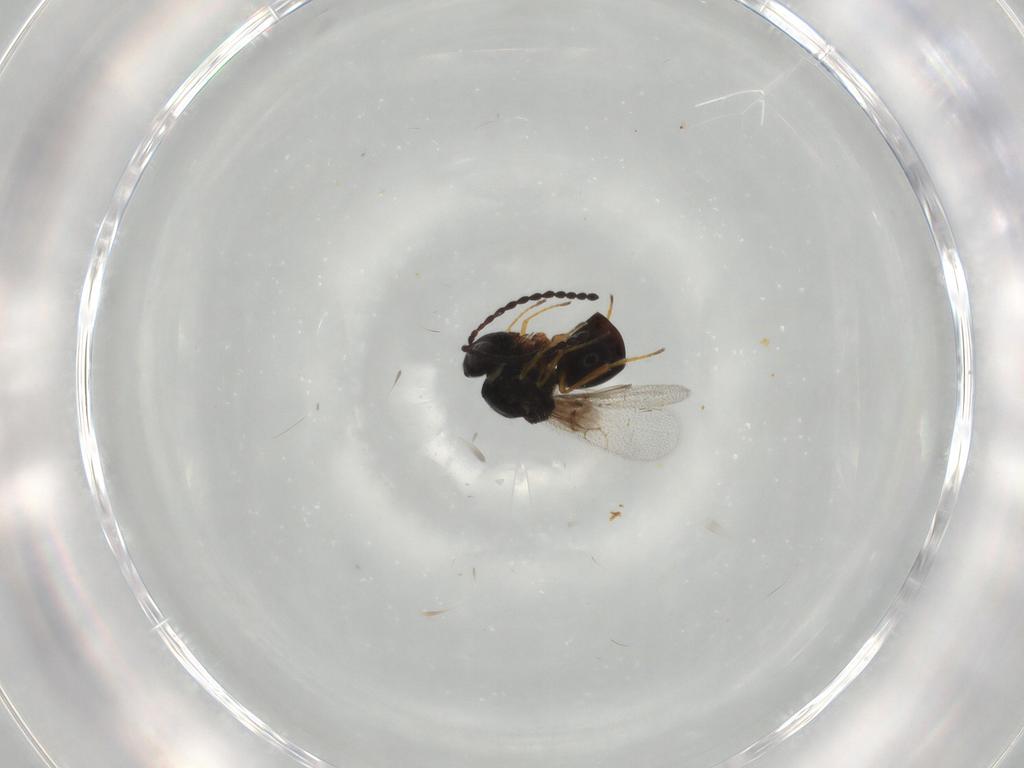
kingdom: Animalia
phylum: Arthropoda
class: Insecta
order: Hymenoptera
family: Figitidae
